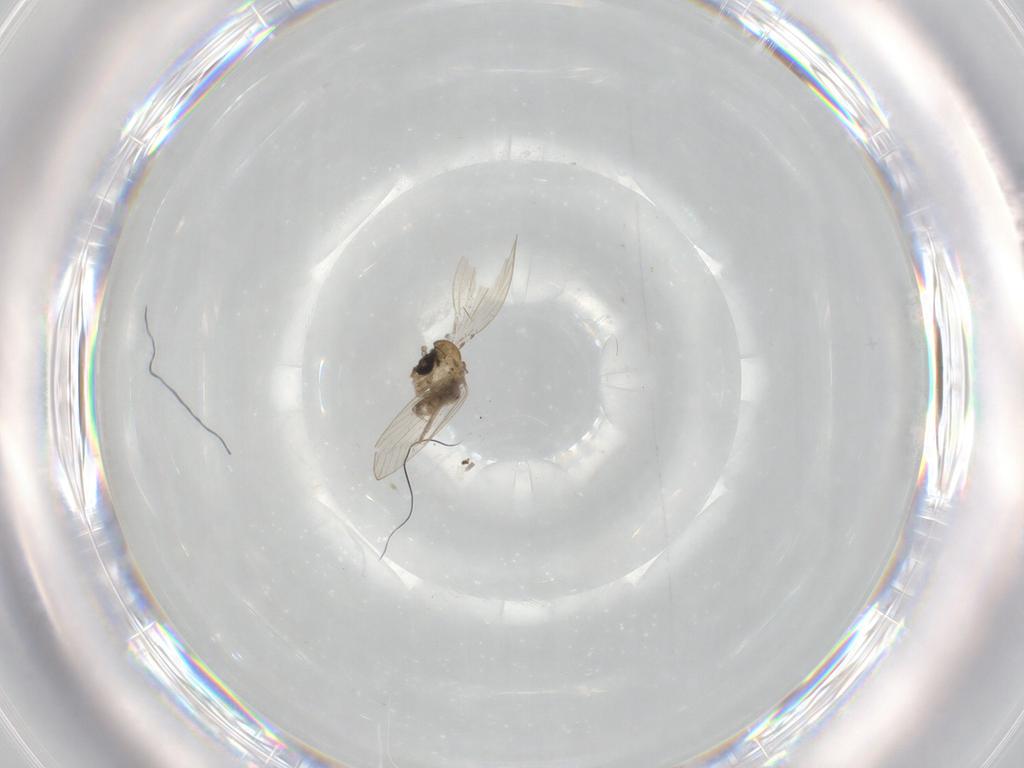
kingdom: Animalia
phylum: Arthropoda
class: Insecta
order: Diptera
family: Psychodidae
